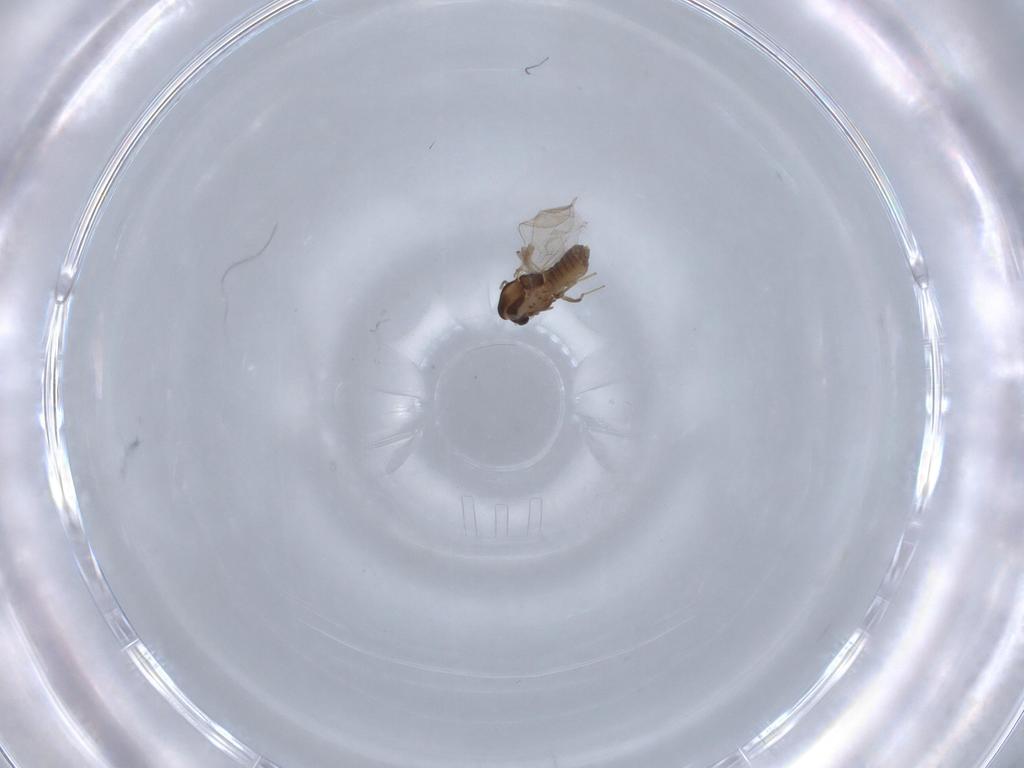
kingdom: Animalia
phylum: Arthropoda
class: Insecta
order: Diptera
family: Chironomidae
